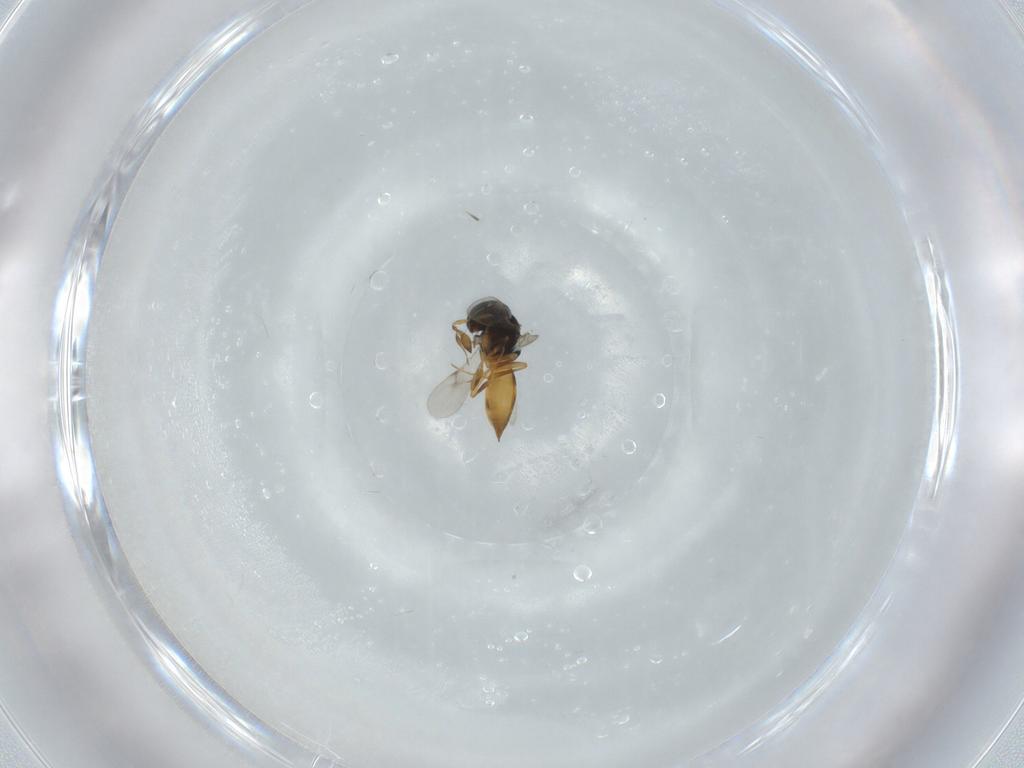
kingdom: Animalia
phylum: Arthropoda
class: Arachnida
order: Araneae
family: Pholcidae
